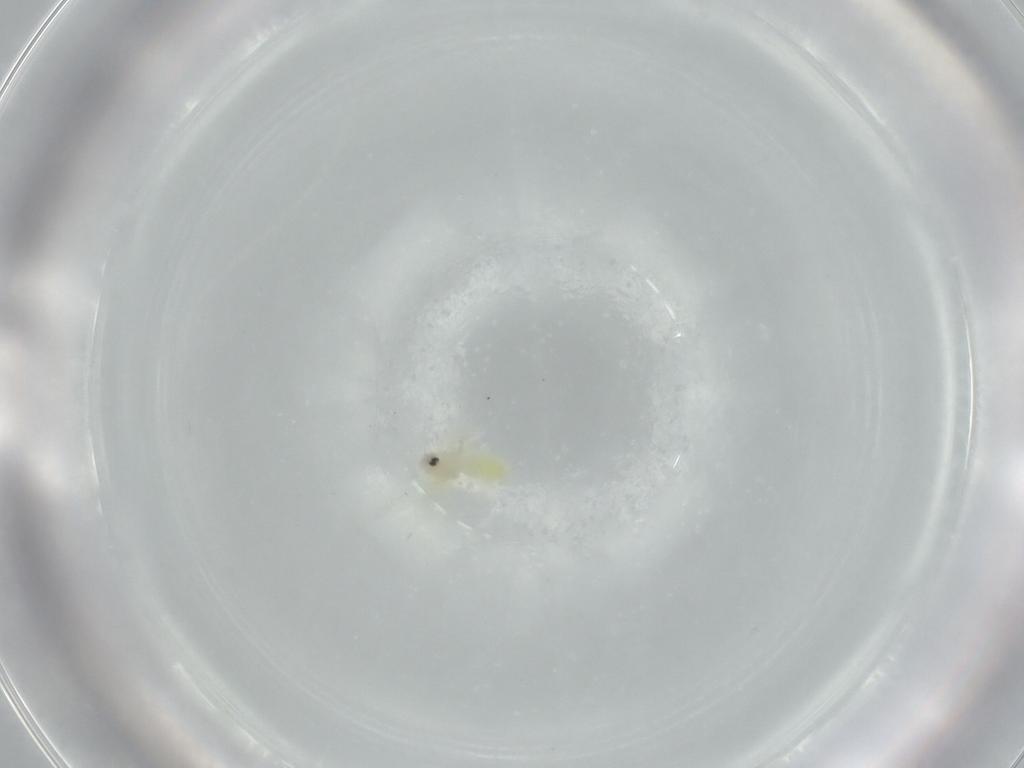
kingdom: Animalia
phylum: Arthropoda
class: Insecta
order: Hemiptera
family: Aleyrodidae
